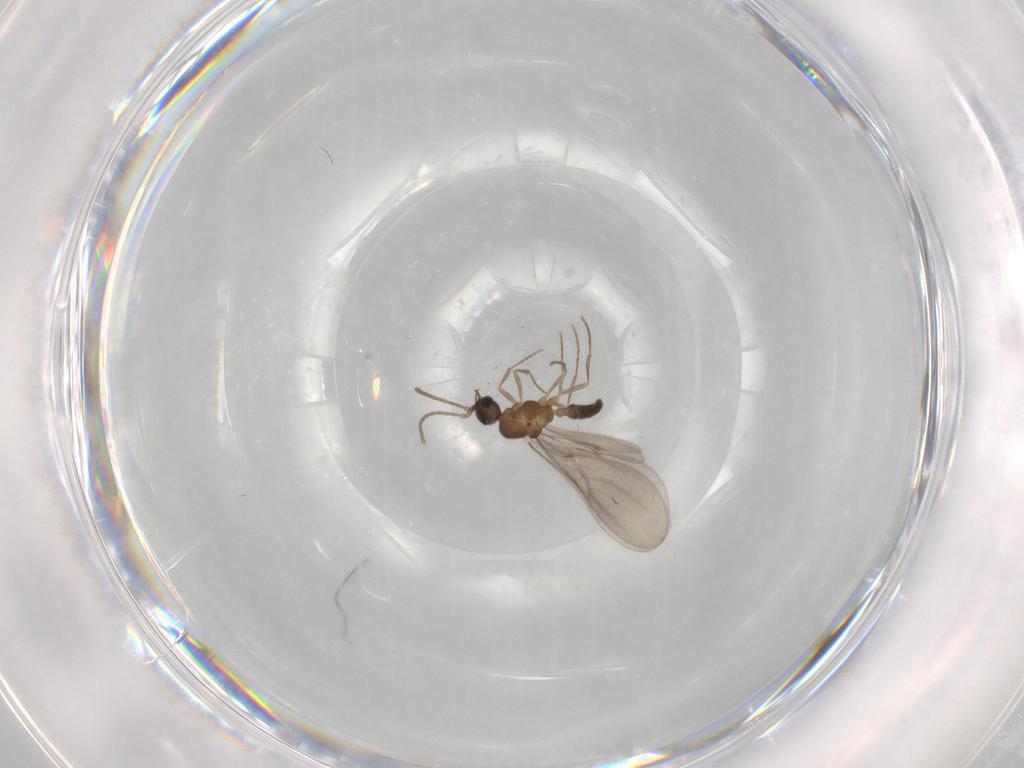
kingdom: Animalia
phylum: Arthropoda
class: Insecta
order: Hymenoptera
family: Formicidae
